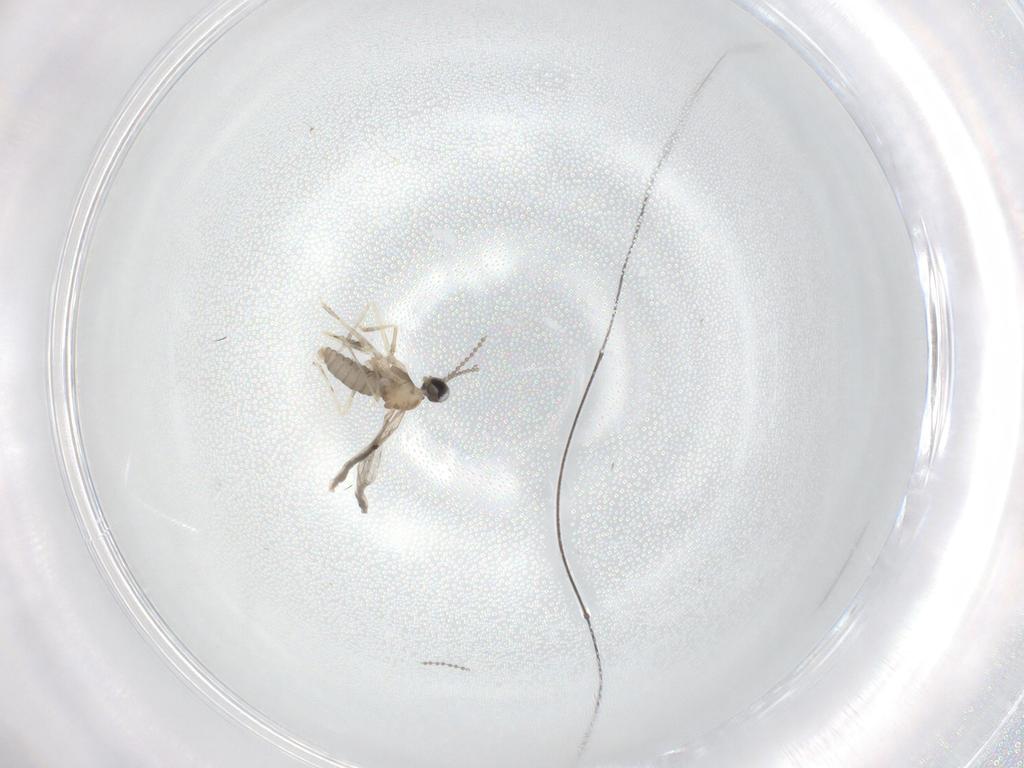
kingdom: Animalia
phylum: Arthropoda
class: Insecta
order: Diptera
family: Cecidomyiidae
